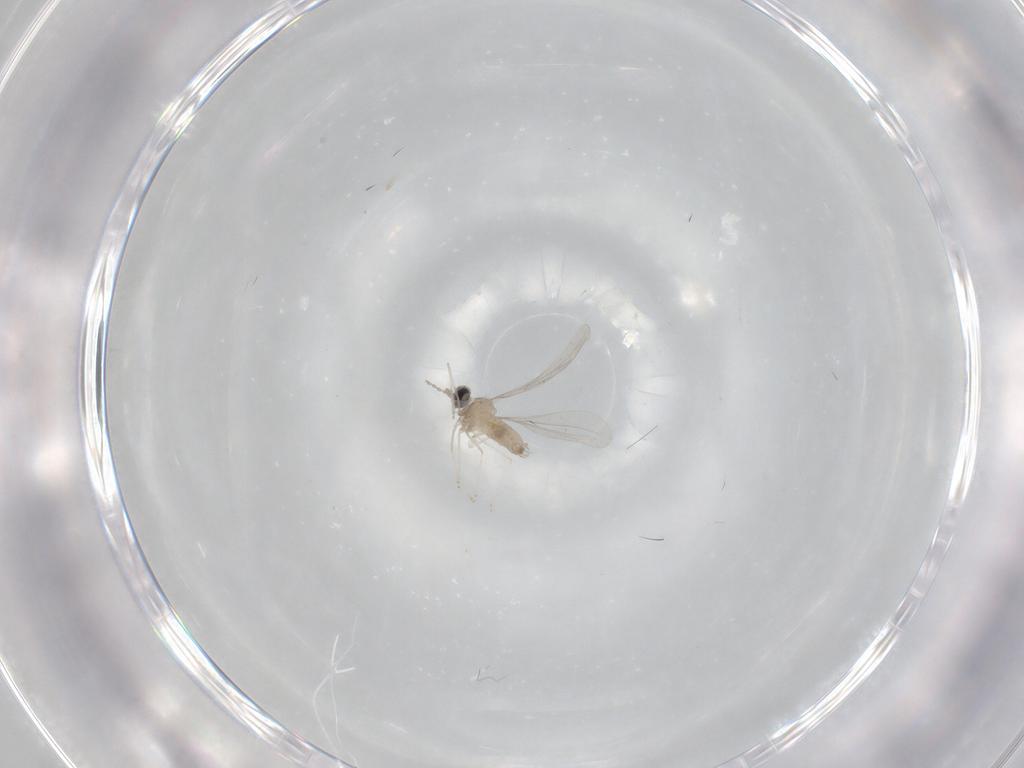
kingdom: Animalia
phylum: Arthropoda
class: Insecta
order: Diptera
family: Cecidomyiidae
